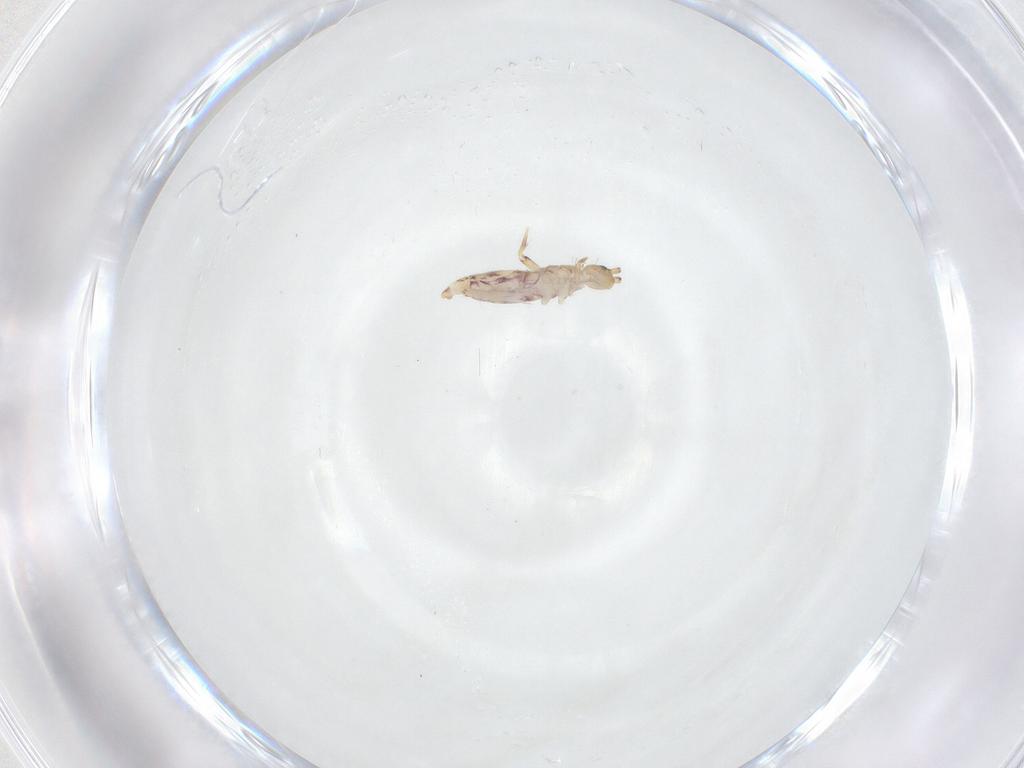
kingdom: Animalia
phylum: Arthropoda
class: Collembola
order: Entomobryomorpha
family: Entomobryidae
